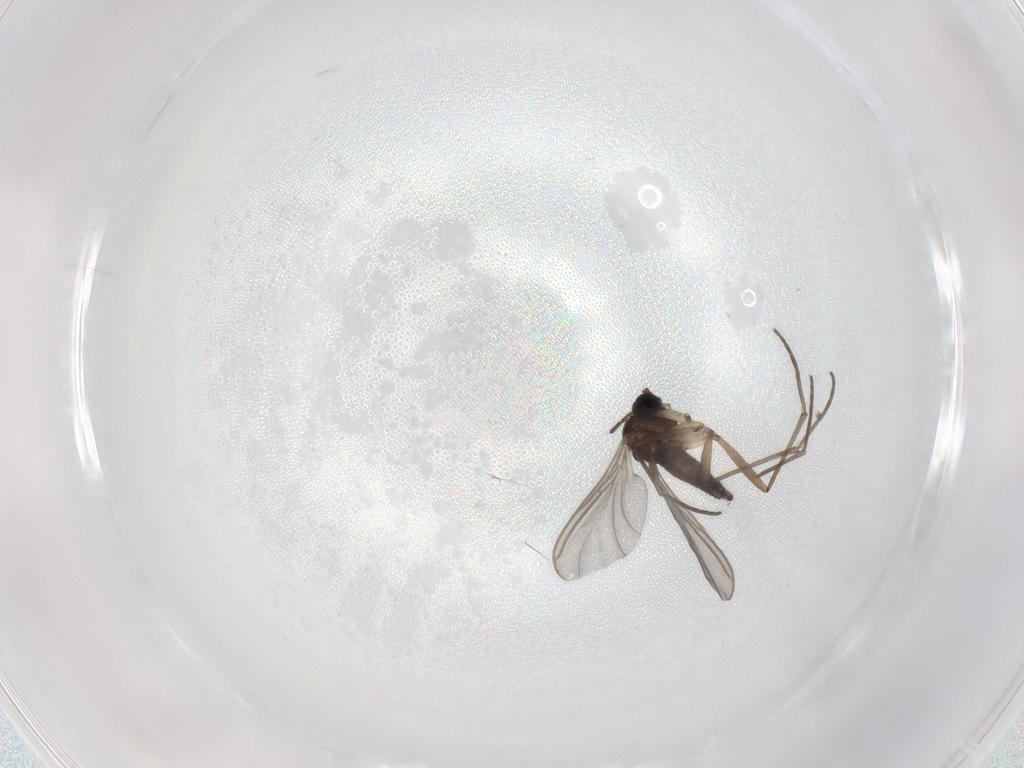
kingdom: Animalia
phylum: Arthropoda
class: Insecta
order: Diptera
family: Sciaridae
